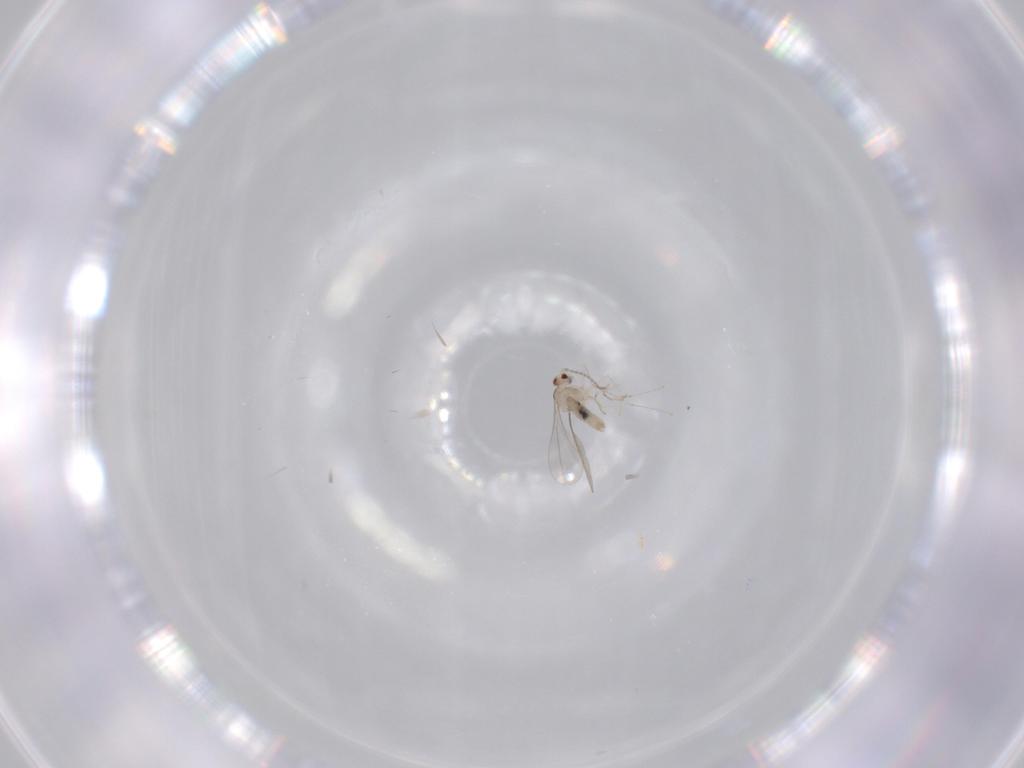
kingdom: Animalia
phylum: Arthropoda
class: Insecta
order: Diptera
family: Cecidomyiidae
